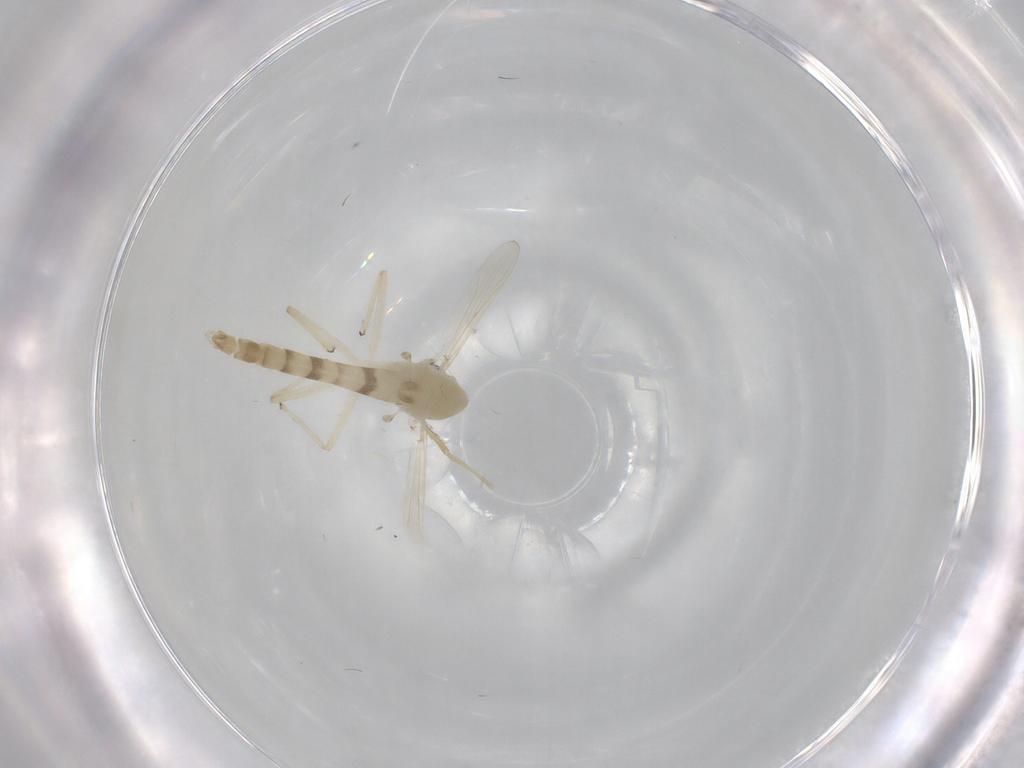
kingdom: Animalia
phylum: Arthropoda
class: Insecta
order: Diptera
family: Chironomidae
